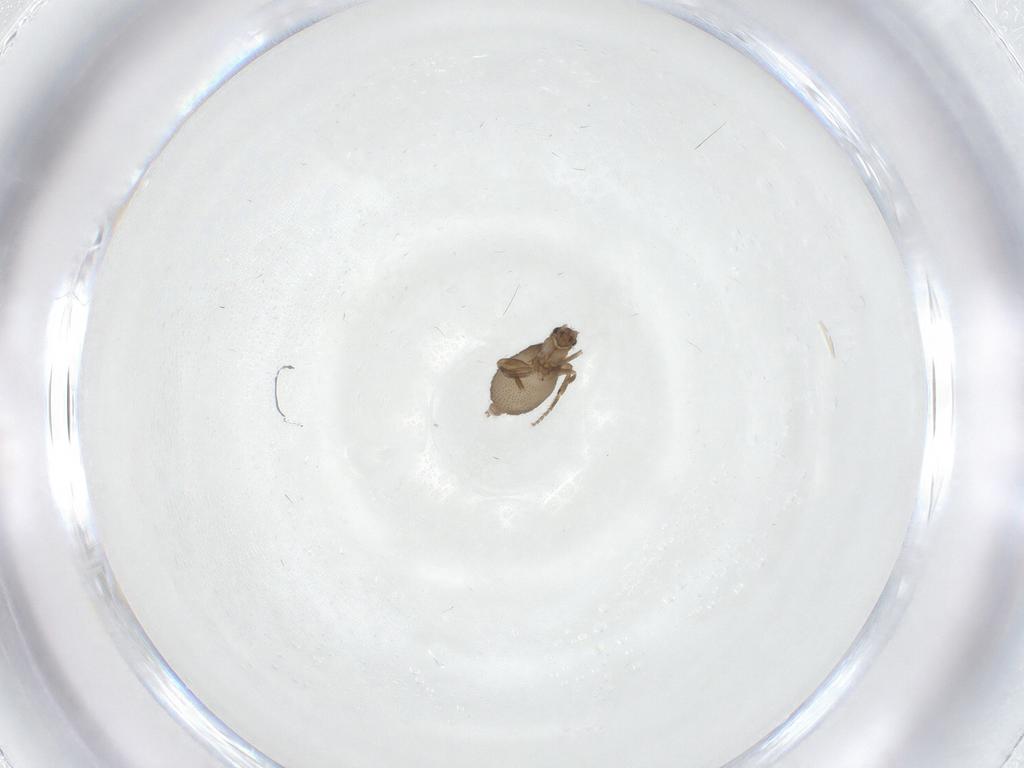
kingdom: Animalia
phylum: Arthropoda
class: Insecta
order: Diptera
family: Phoridae
